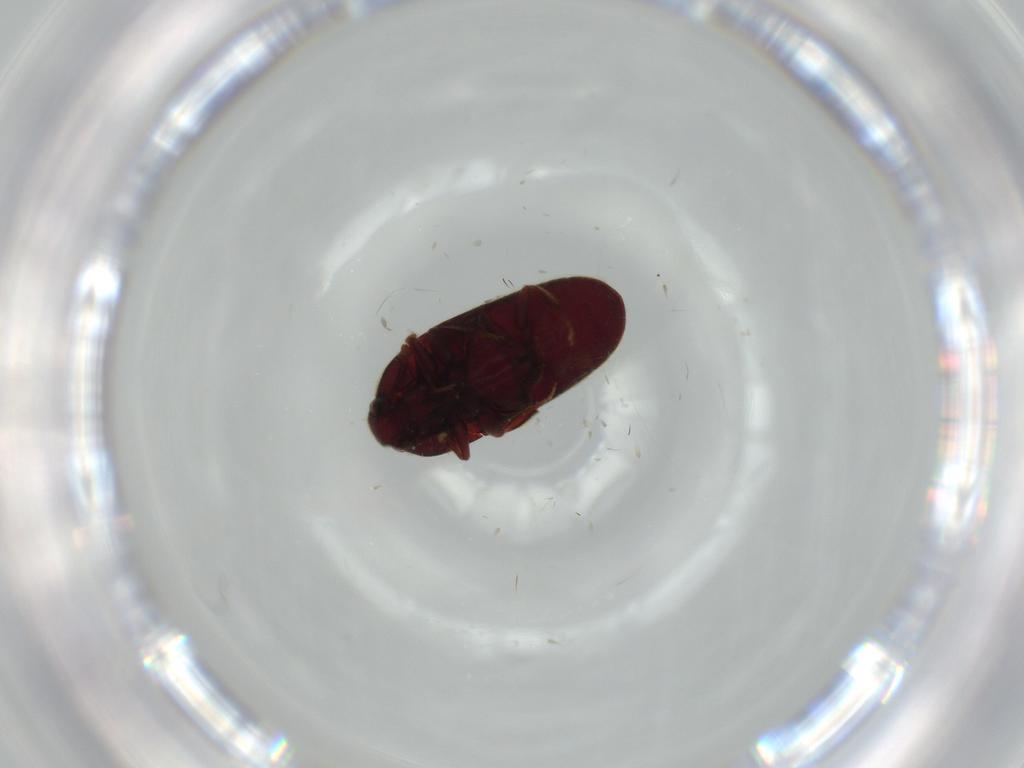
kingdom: Animalia
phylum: Arthropoda
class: Insecta
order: Coleoptera
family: Throscidae
